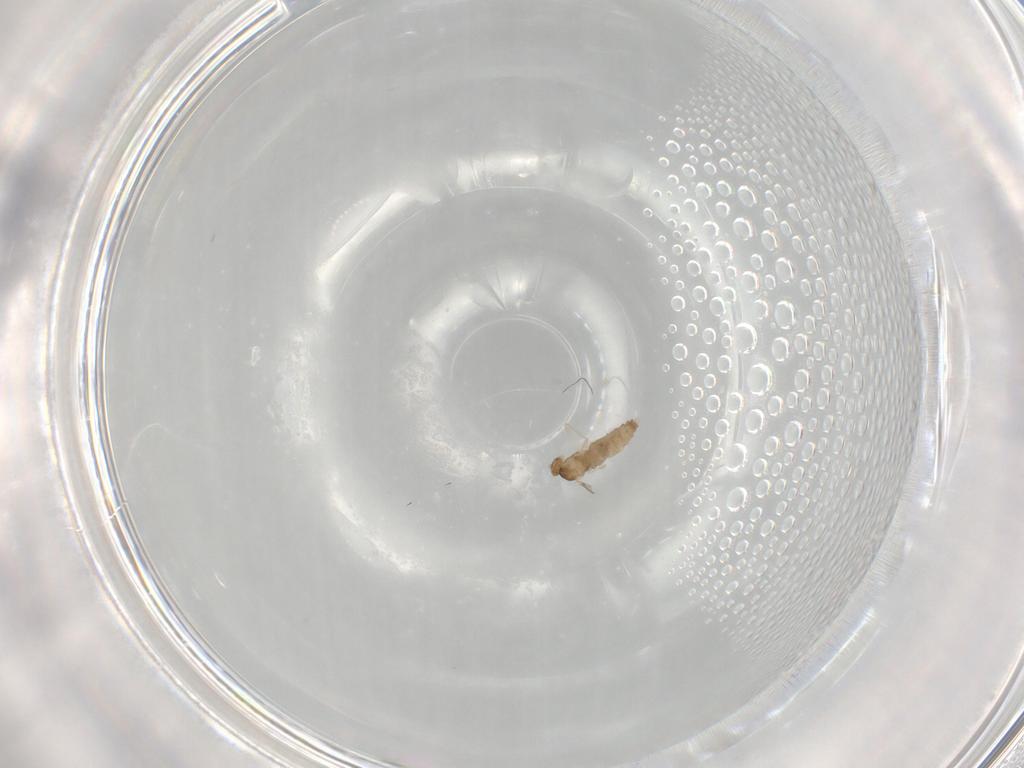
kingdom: Animalia
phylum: Arthropoda
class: Insecta
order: Diptera
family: Cecidomyiidae
